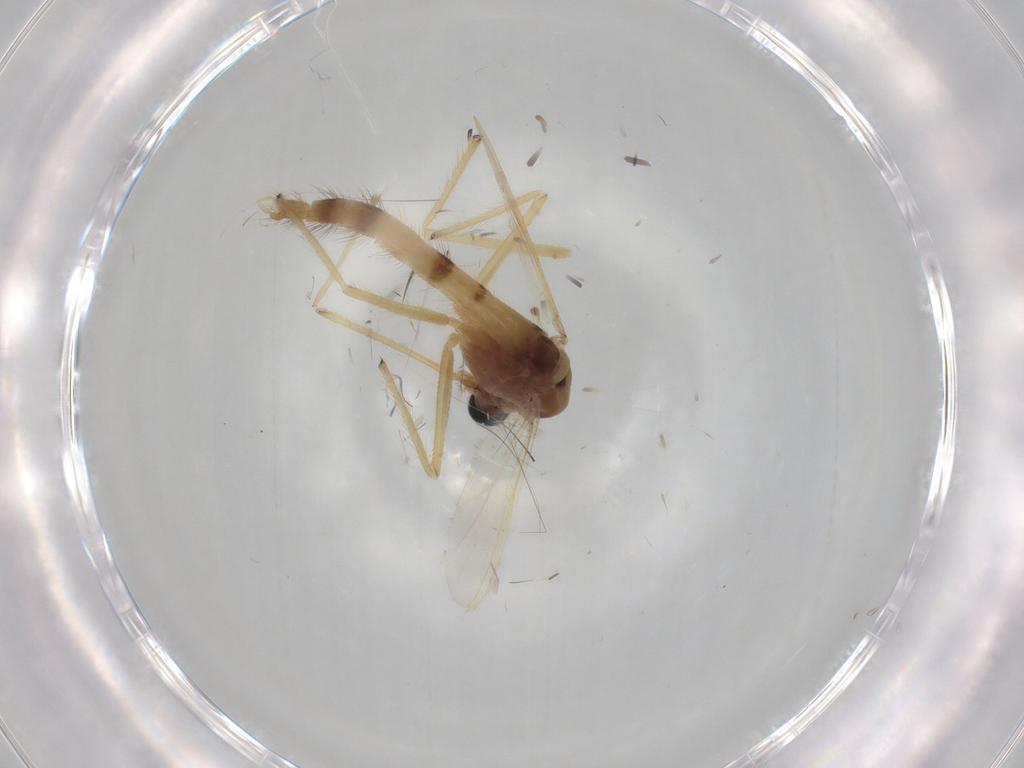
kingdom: Animalia
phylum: Arthropoda
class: Insecta
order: Diptera
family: Chironomidae
